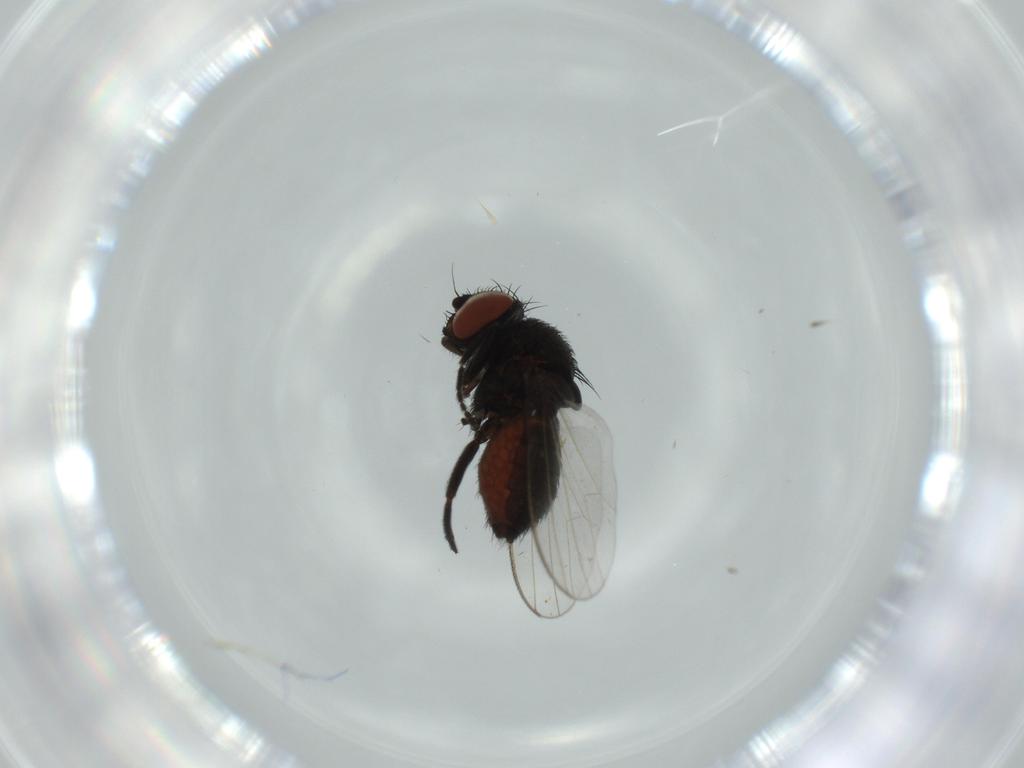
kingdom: Animalia
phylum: Arthropoda
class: Insecta
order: Diptera
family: Milichiidae
